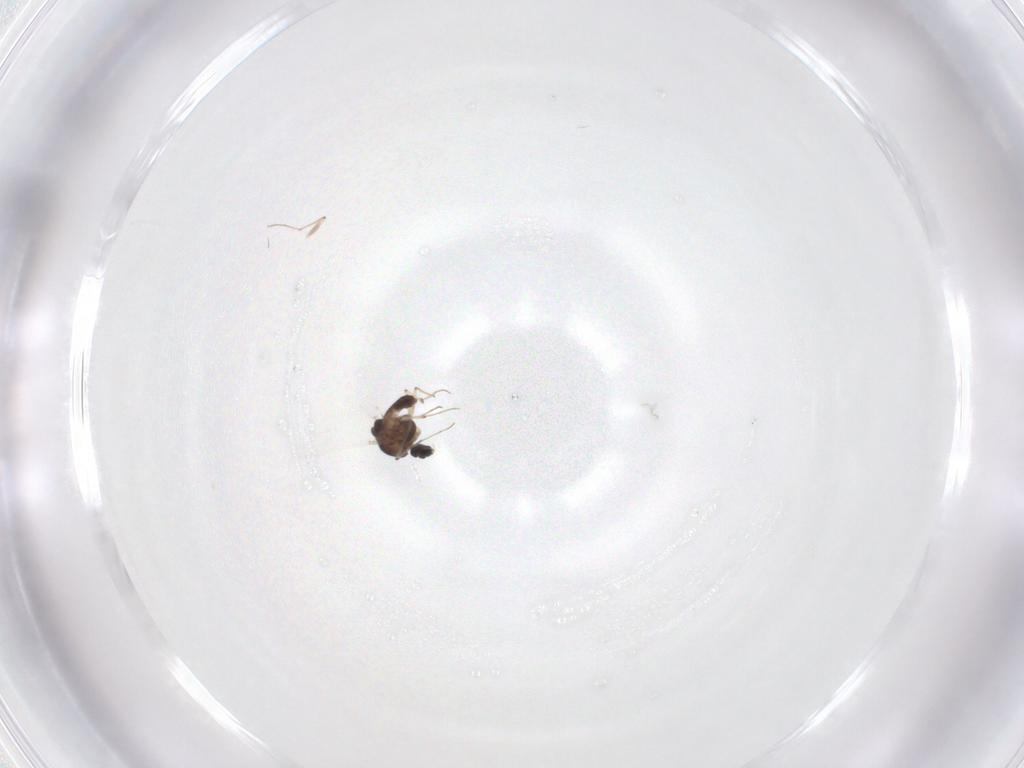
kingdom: Animalia
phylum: Arthropoda
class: Insecta
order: Diptera
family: Chironomidae
